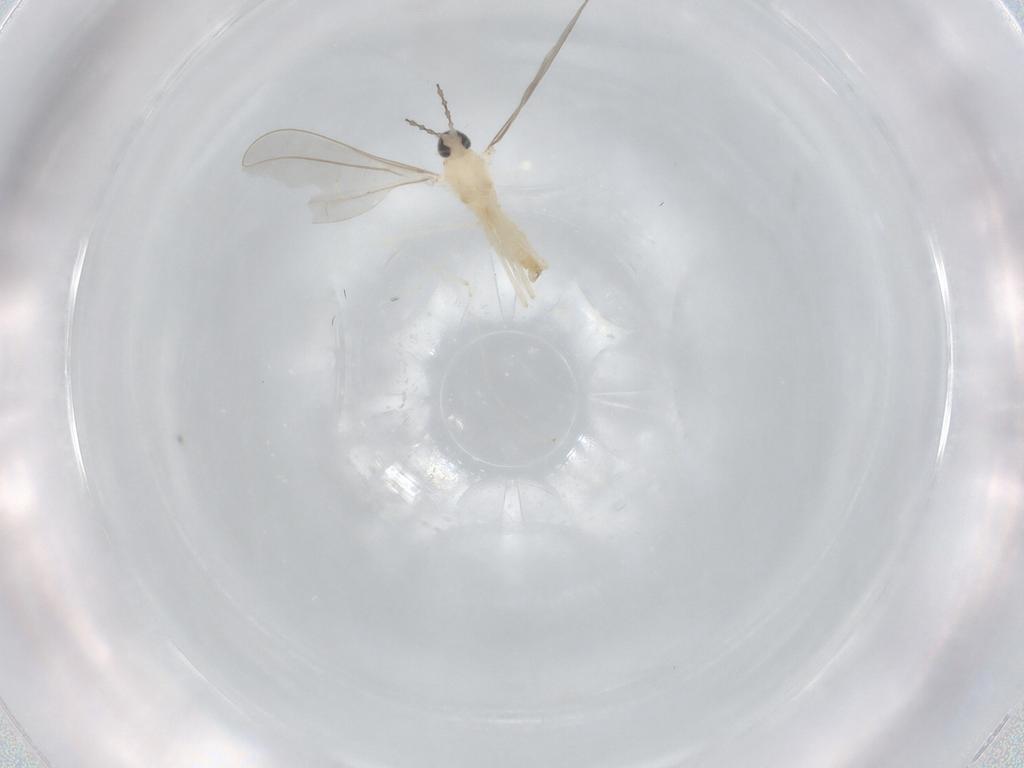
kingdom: Animalia
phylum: Arthropoda
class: Insecta
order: Diptera
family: Cecidomyiidae
